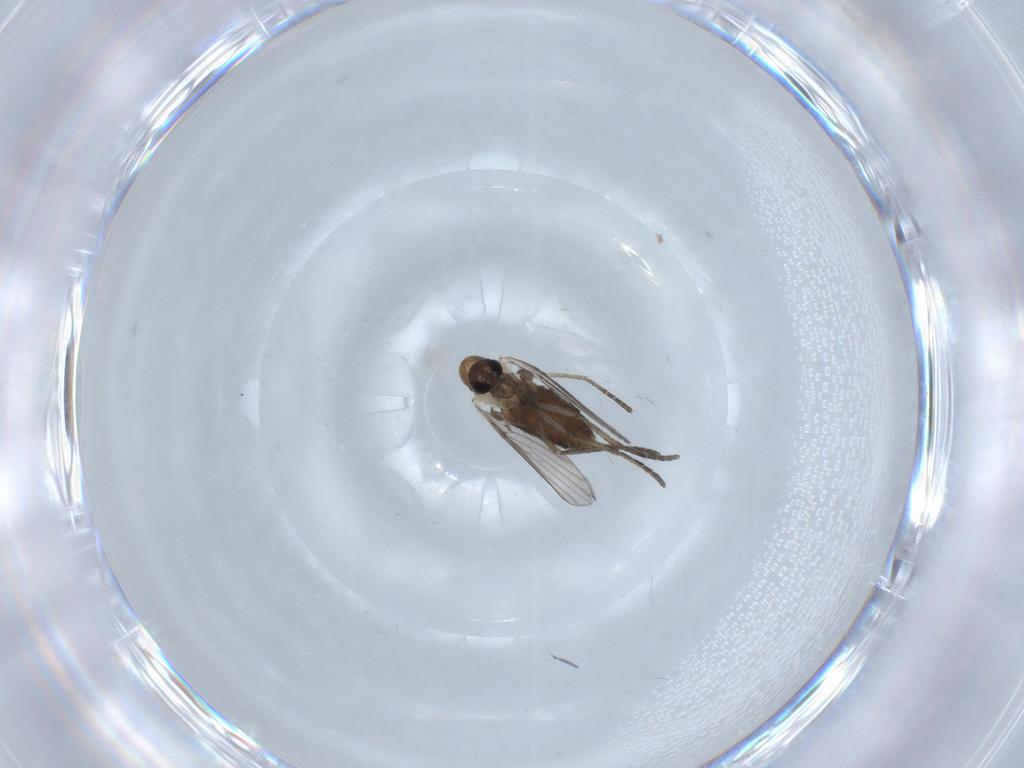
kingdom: Animalia
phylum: Arthropoda
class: Insecta
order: Diptera
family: Psychodidae
